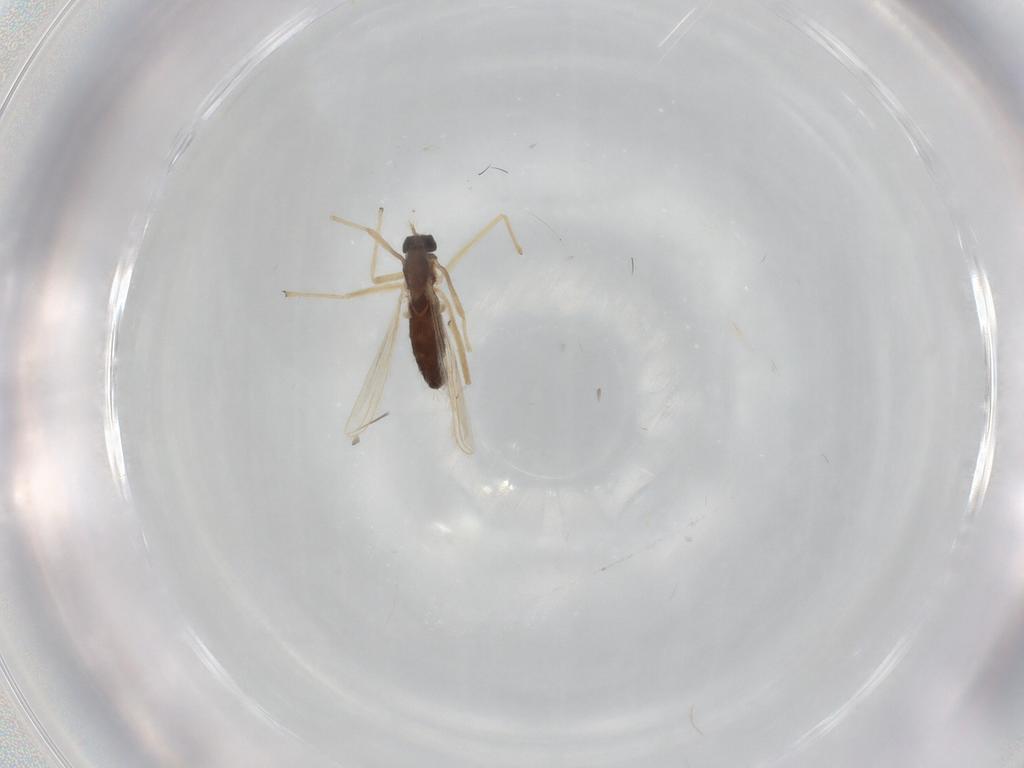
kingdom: Animalia
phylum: Arthropoda
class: Insecta
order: Diptera
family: Chironomidae
